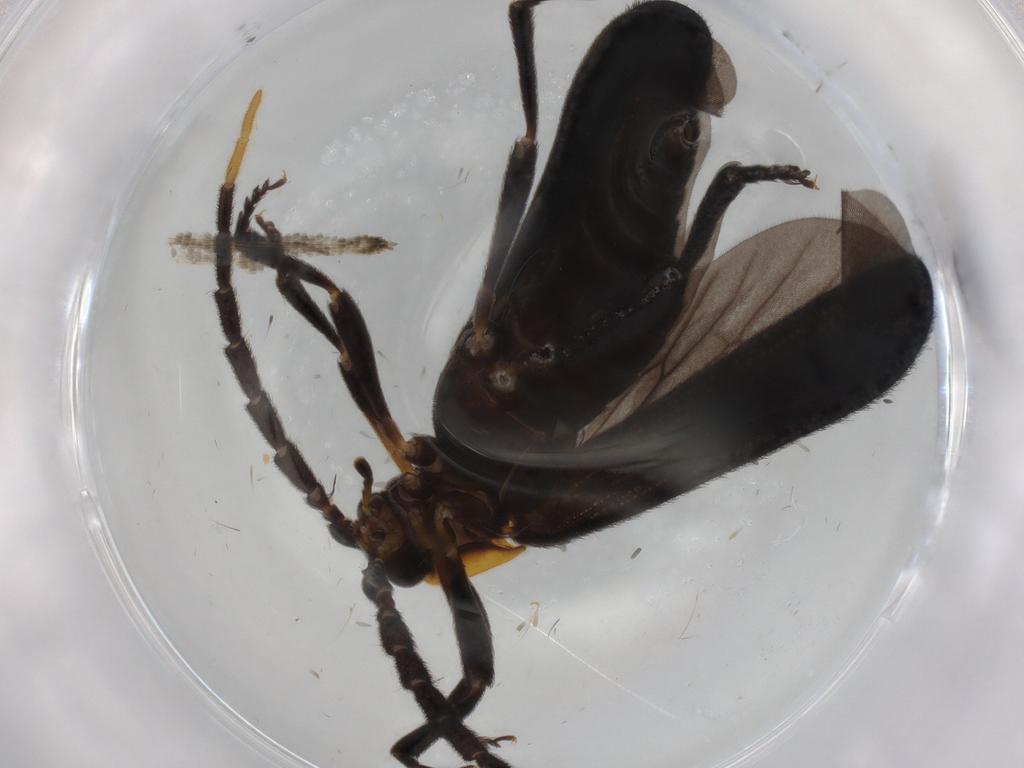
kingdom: Animalia
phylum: Arthropoda
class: Insecta
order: Coleoptera
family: Lycidae
